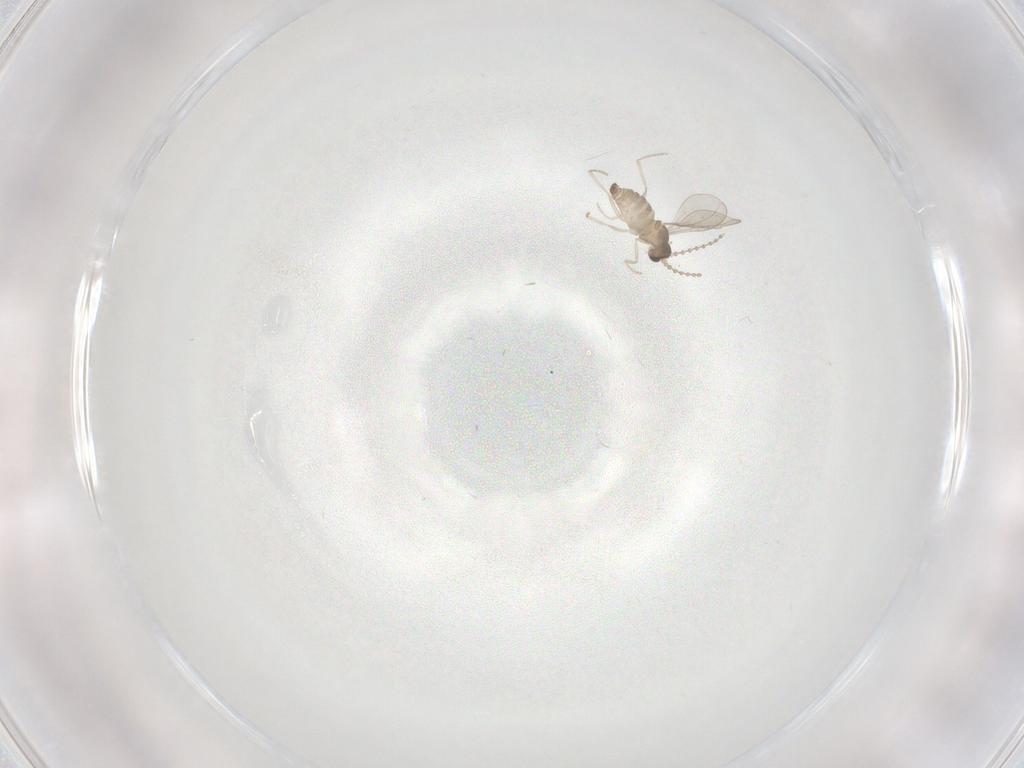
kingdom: Animalia
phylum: Arthropoda
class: Insecta
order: Diptera
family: Cecidomyiidae
